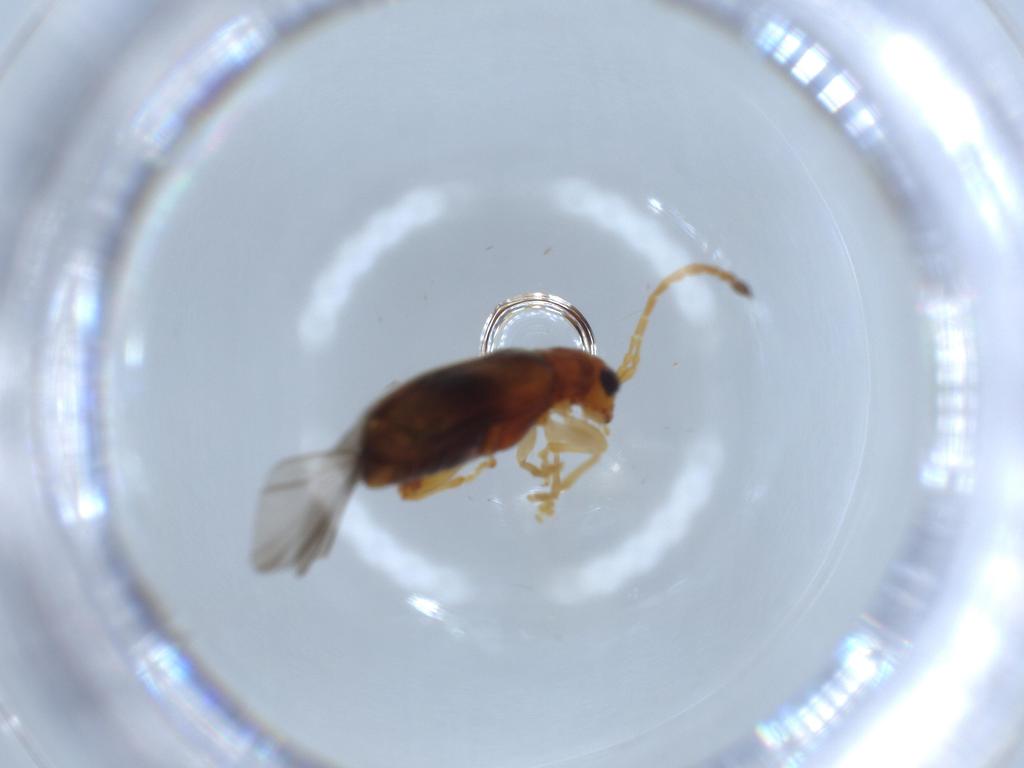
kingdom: Animalia
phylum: Arthropoda
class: Insecta
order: Coleoptera
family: Chrysomelidae
